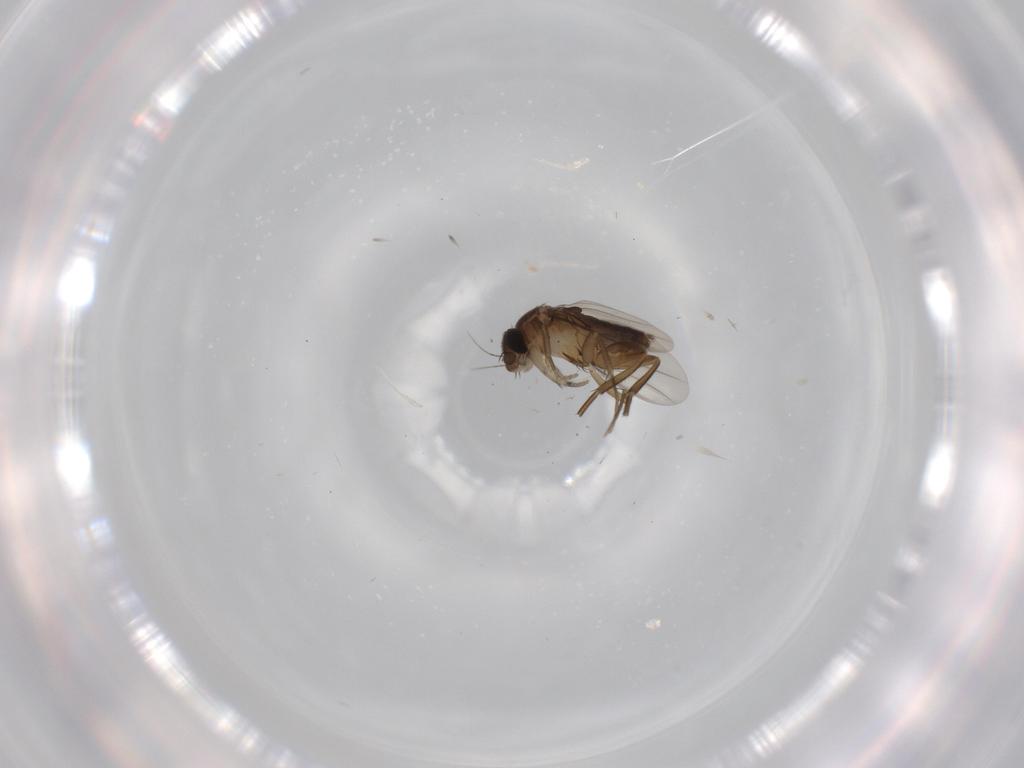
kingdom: Animalia
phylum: Arthropoda
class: Insecta
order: Diptera
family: Phoridae
